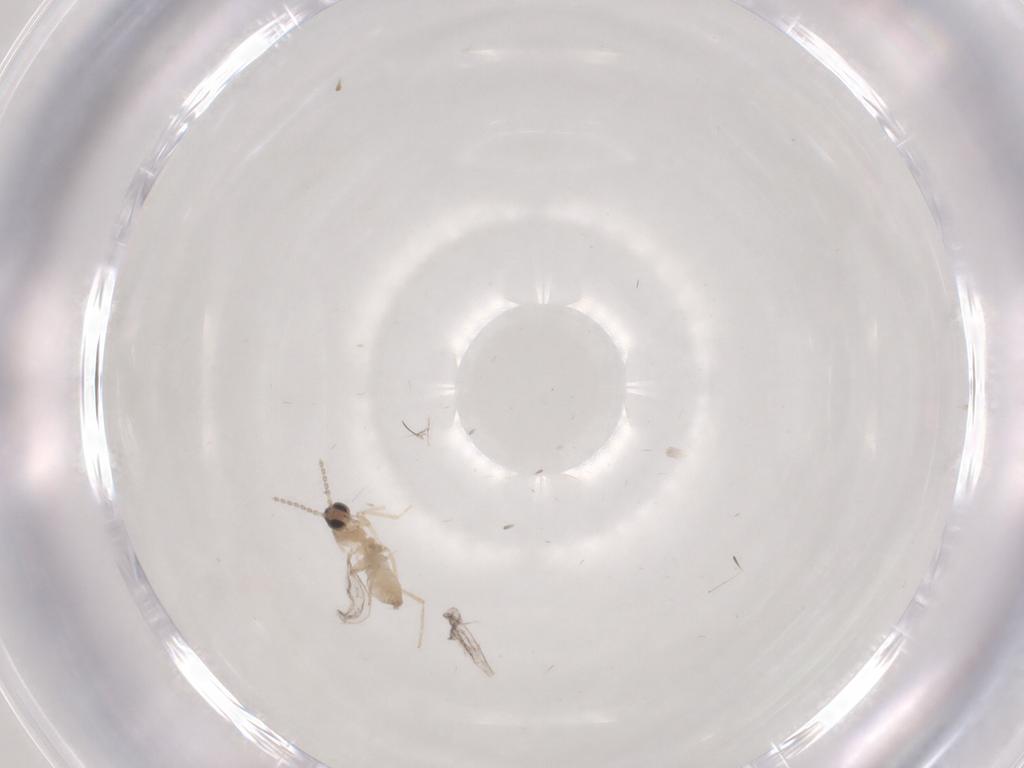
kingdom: Animalia
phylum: Arthropoda
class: Insecta
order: Diptera
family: Cecidomyiidae
